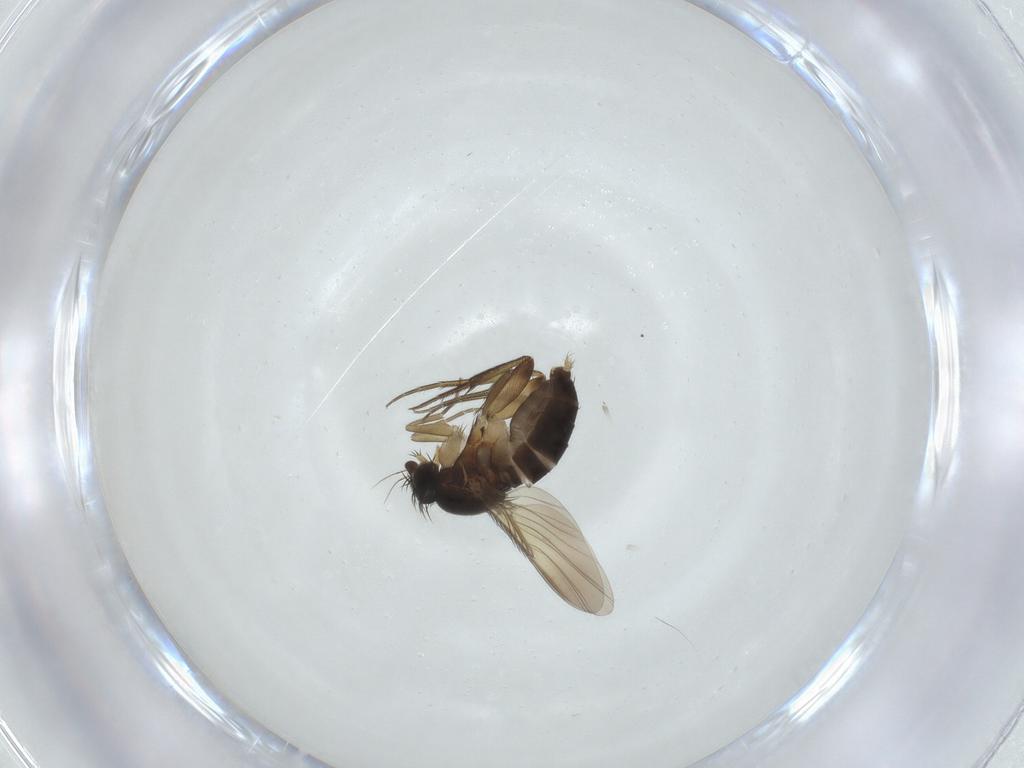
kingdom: Animalia
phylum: Arthropoda
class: Insecta
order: Diptera
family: Phoridae
